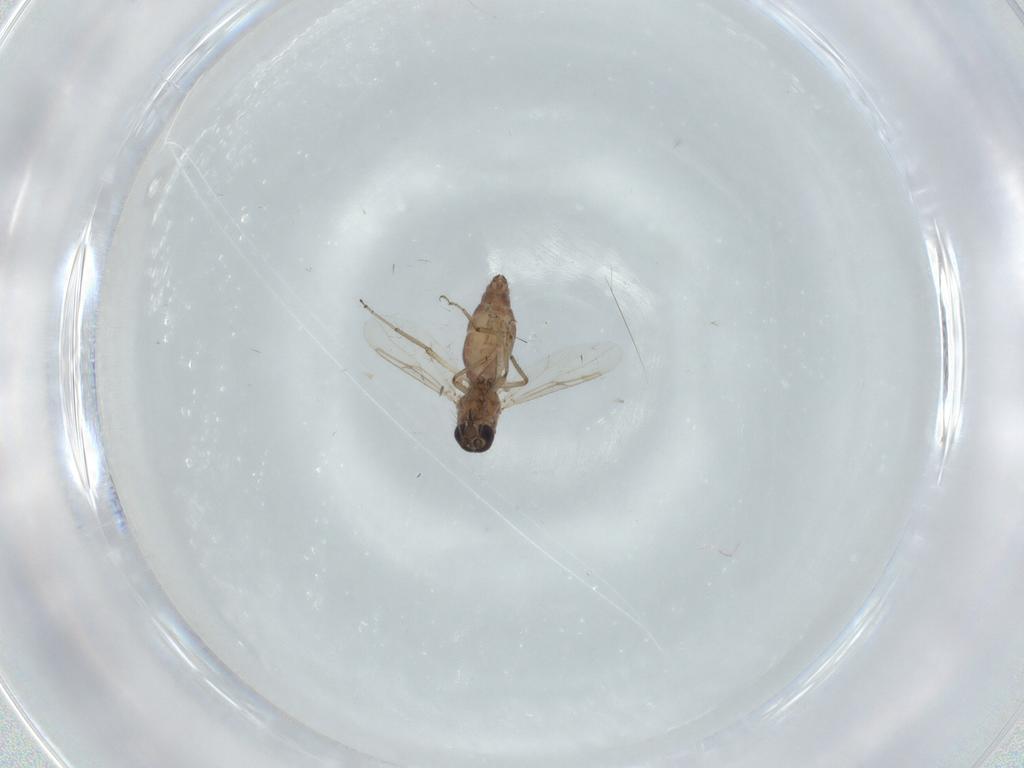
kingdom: Animalia
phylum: Arthropoda
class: Insecta
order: Diptera
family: Ceratopogonidae
